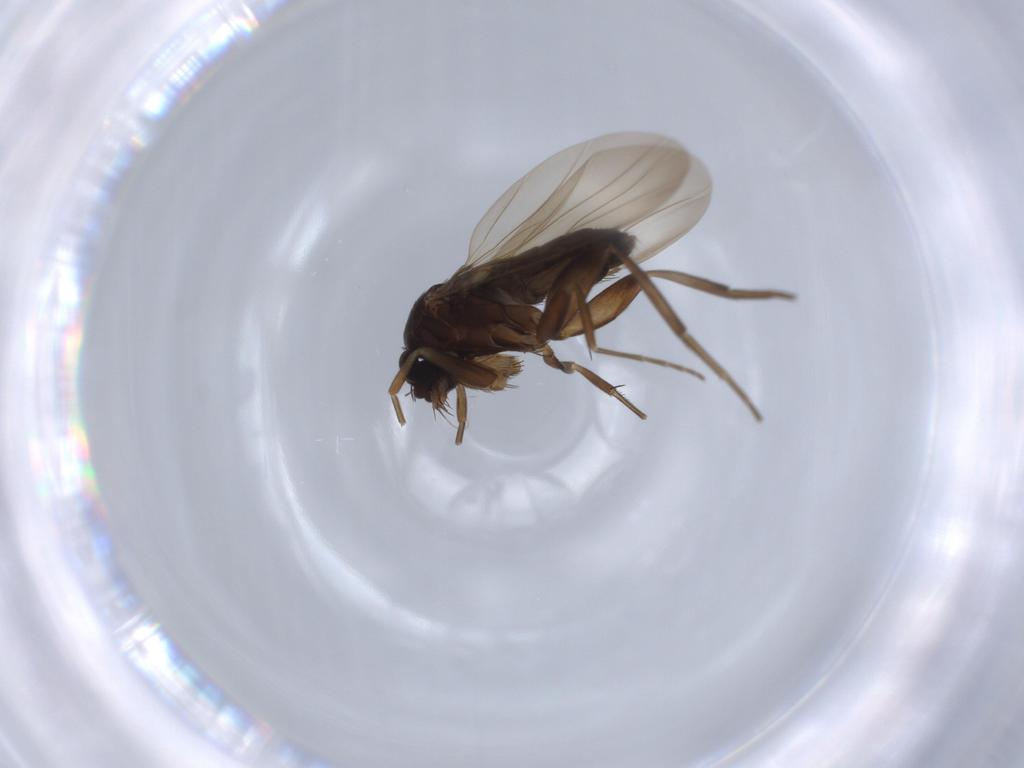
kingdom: Animalia
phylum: Arthropoda
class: Insecta
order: Diptera
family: Phoridae
